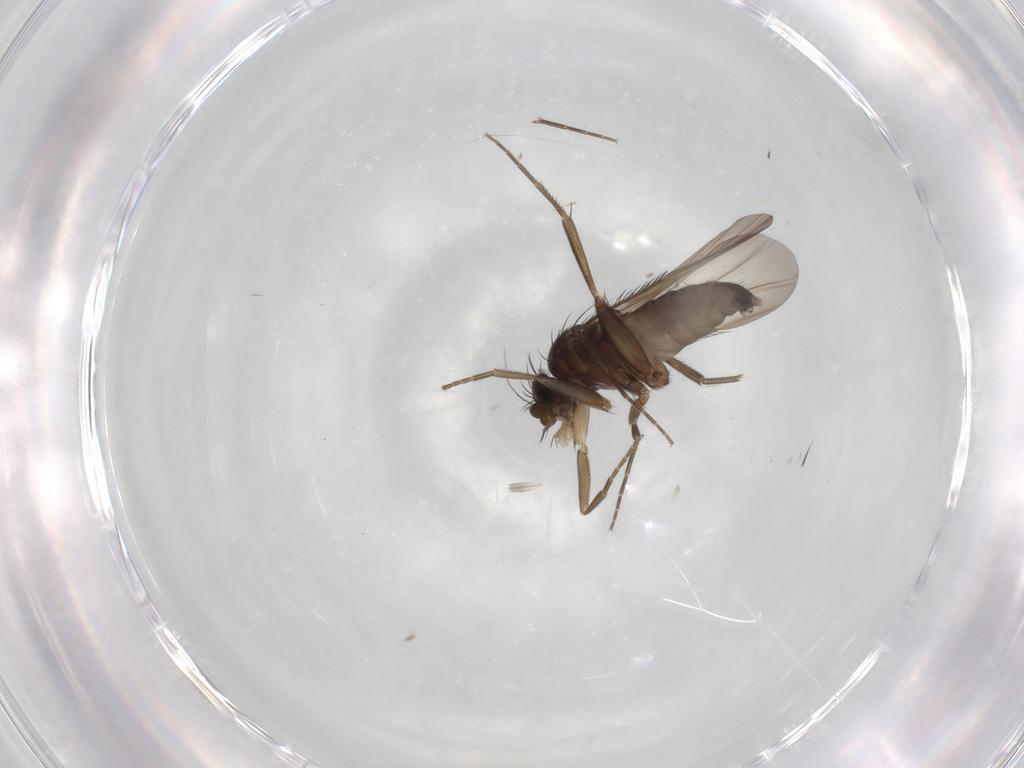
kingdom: Animalia
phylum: Arthropoda
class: Insecta
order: Diptera
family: Phoridae
